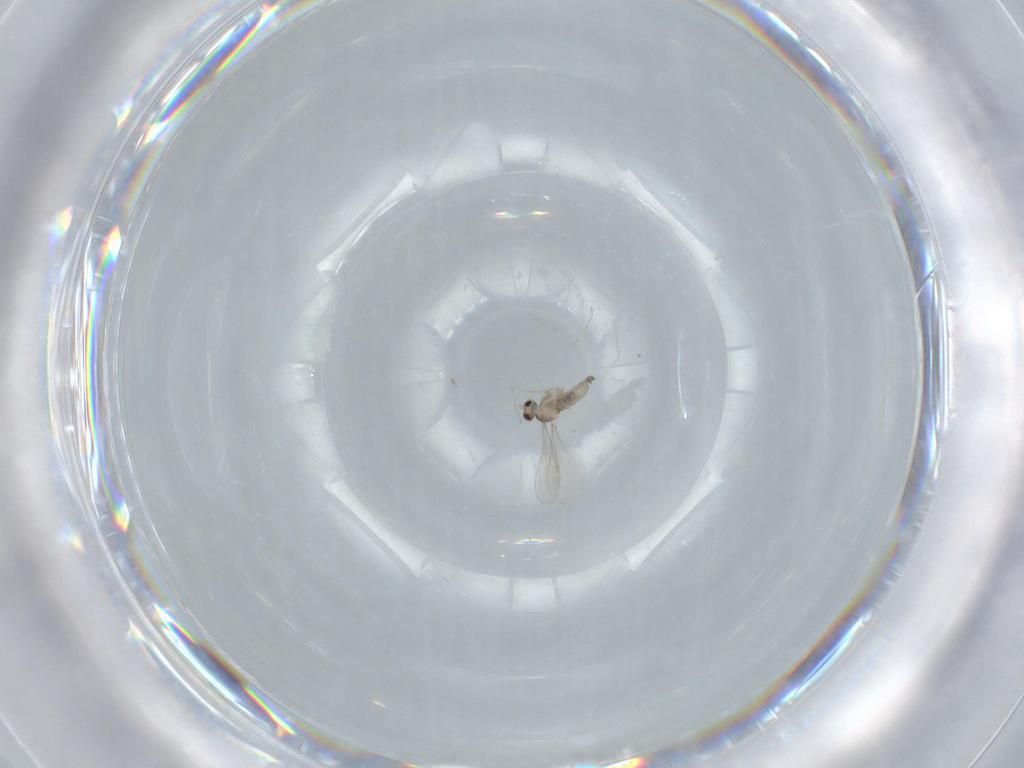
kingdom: Animalia
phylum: Arthropoda
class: Insecta
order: Diptera
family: Cecidomyiidae
